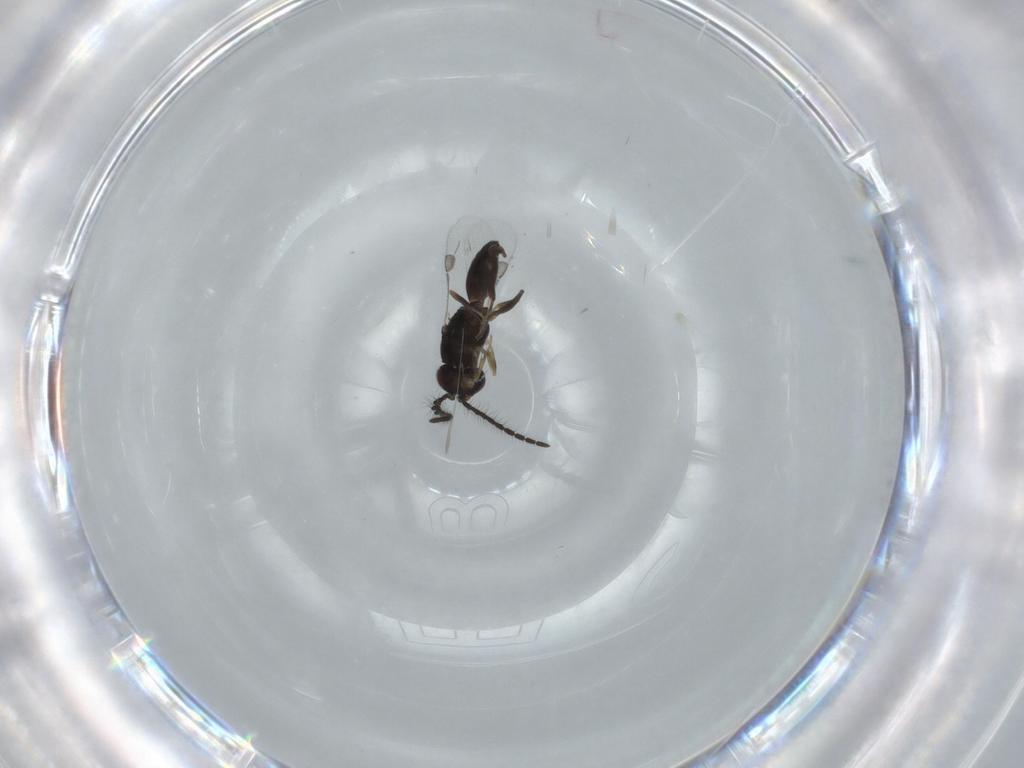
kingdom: Animalia
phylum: Arthropoda
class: Insecta
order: Hymenoptera
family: Megaspilidae
